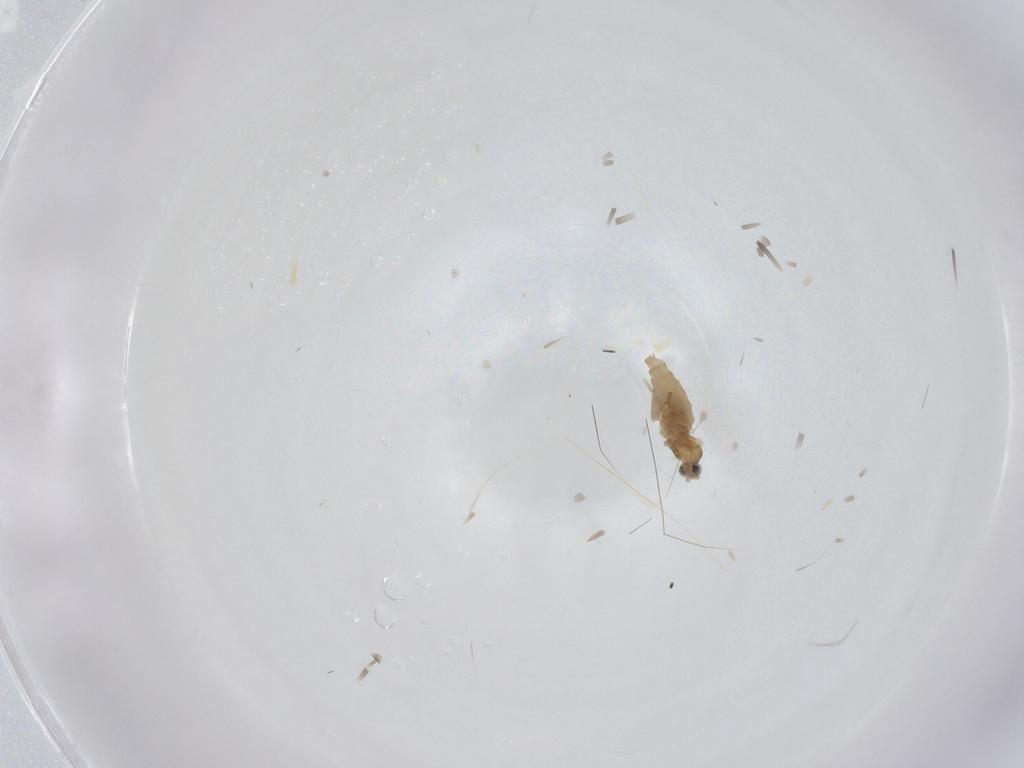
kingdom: Animalia
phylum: Arthropoda
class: Insecta
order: Diptera
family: Cecidomyiidae
